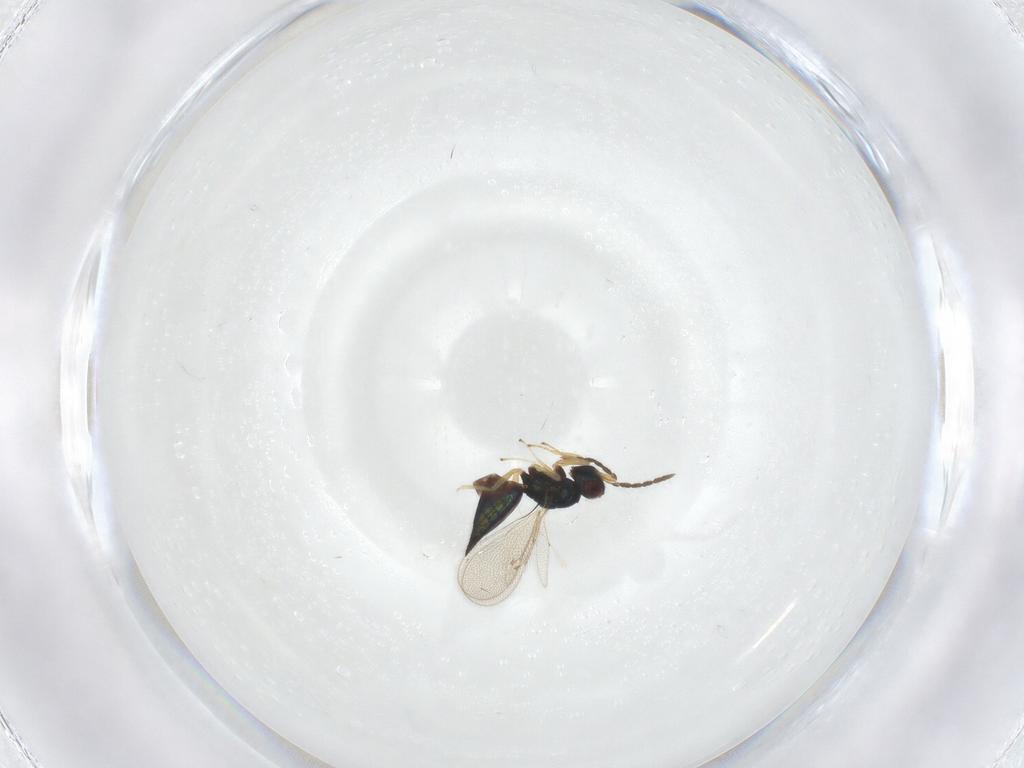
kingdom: Animalia
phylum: Arthropoda
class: Insecta
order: Hymenoptera
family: Eulophidae
